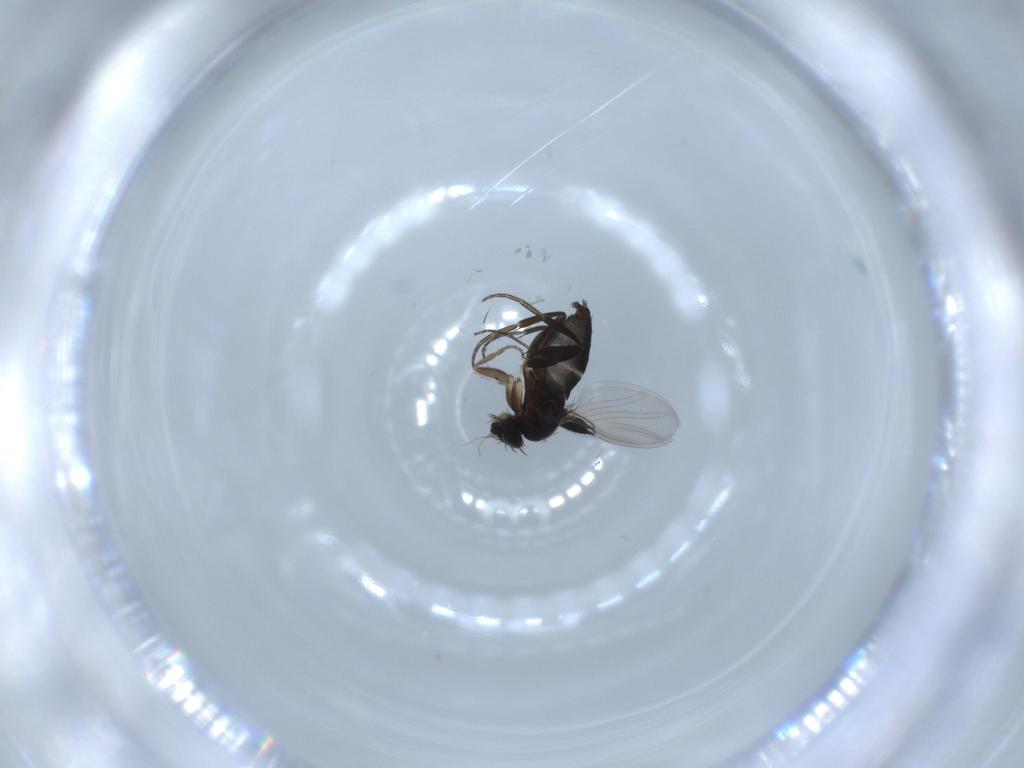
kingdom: Animalia
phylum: Arthropoda
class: Insecta
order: Diptera
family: Phoridae
